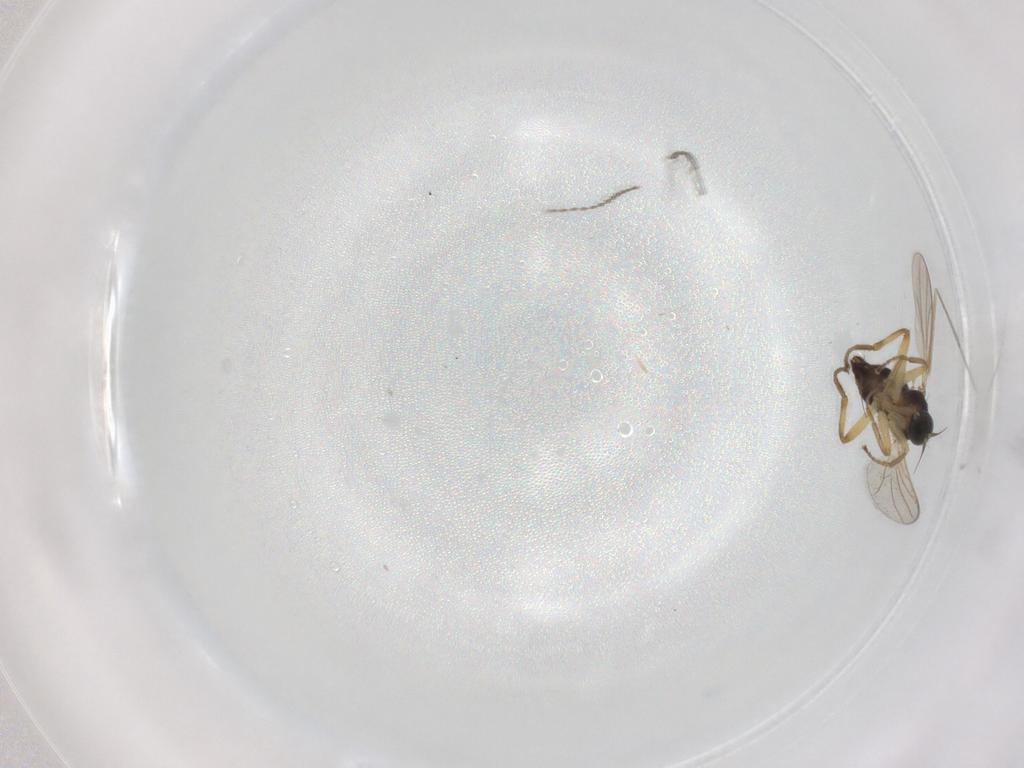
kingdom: Animalia
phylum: Arthropoda
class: Insecta
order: Diptera
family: Hybotidae
